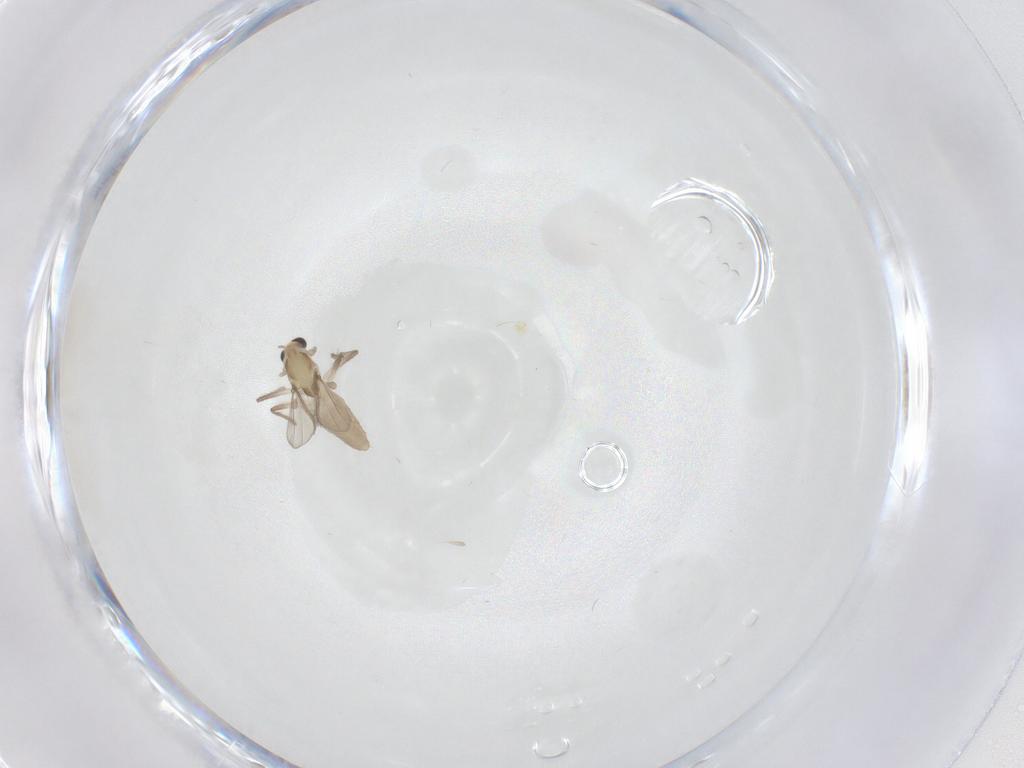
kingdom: Animalia
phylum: Arthropoda
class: Insecta
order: Diptera
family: Chironomidae
